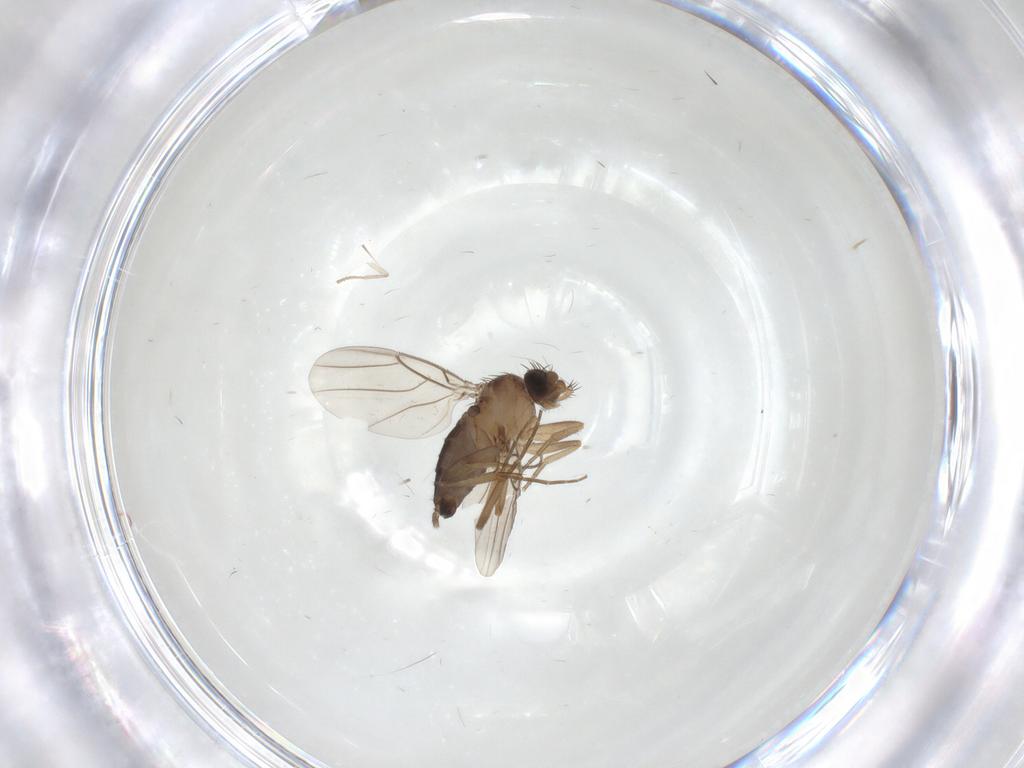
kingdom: Animalia
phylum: Arthropoda
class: Insecta
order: Diptera
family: Phoridae
